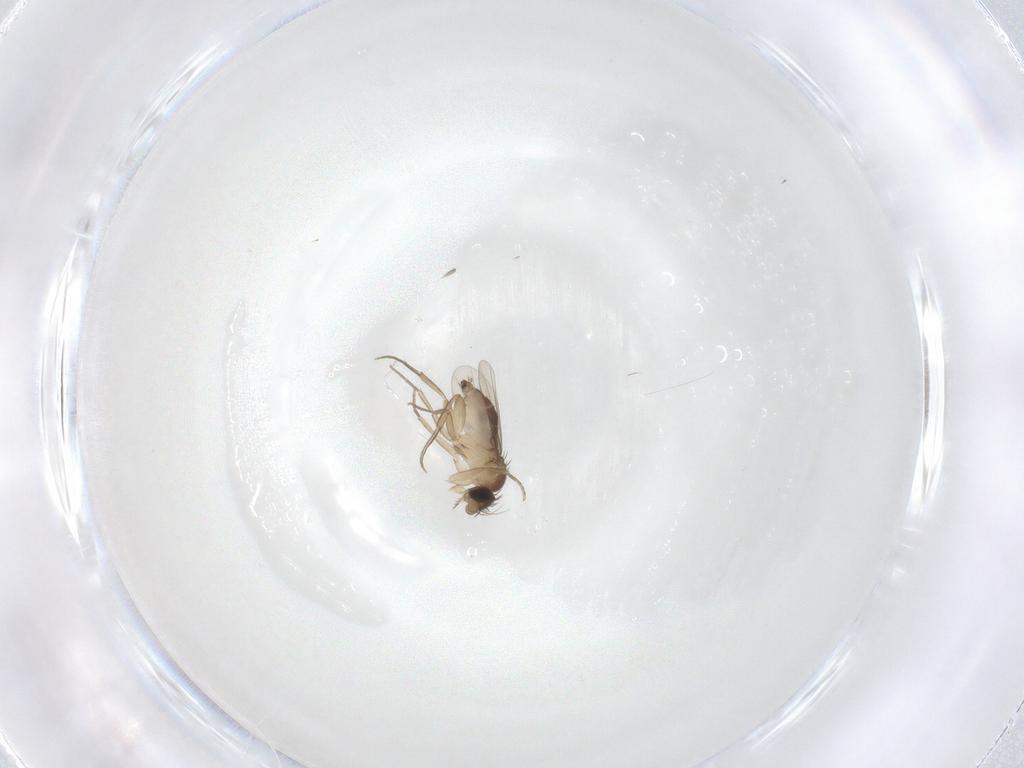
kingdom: Animalia
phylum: Arthropoda
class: Insecta
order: Diptera
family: Phoridae
